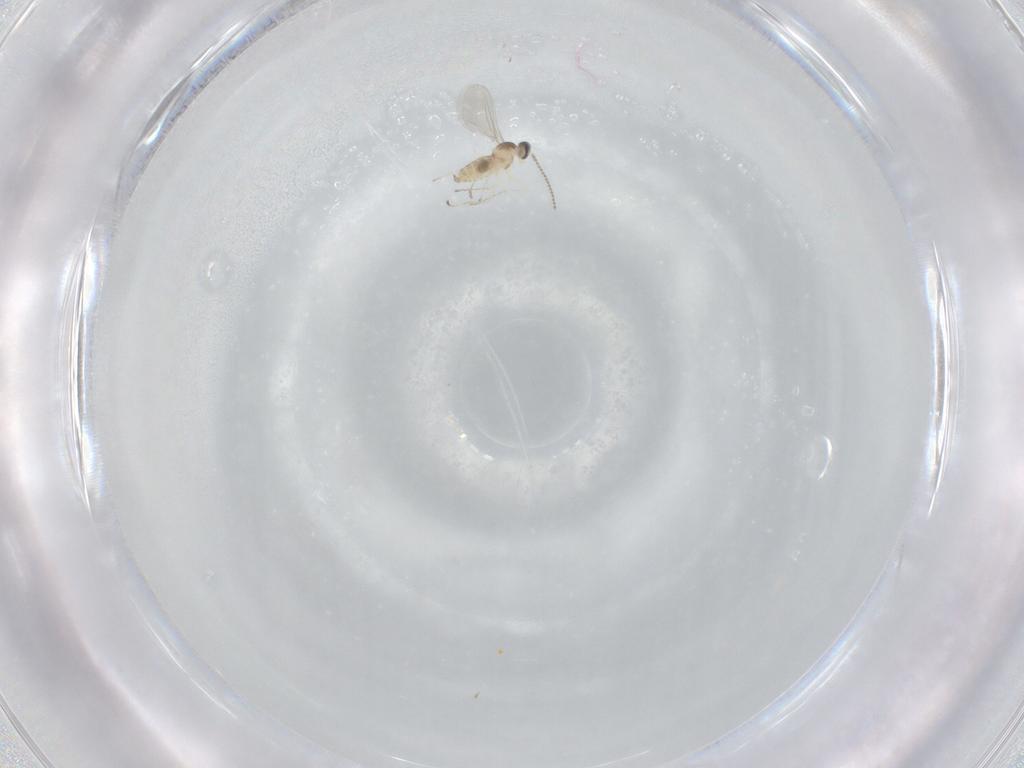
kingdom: Animalia
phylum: Arthropoda
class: Insecta
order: Diptera
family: Cecidomyiidae
